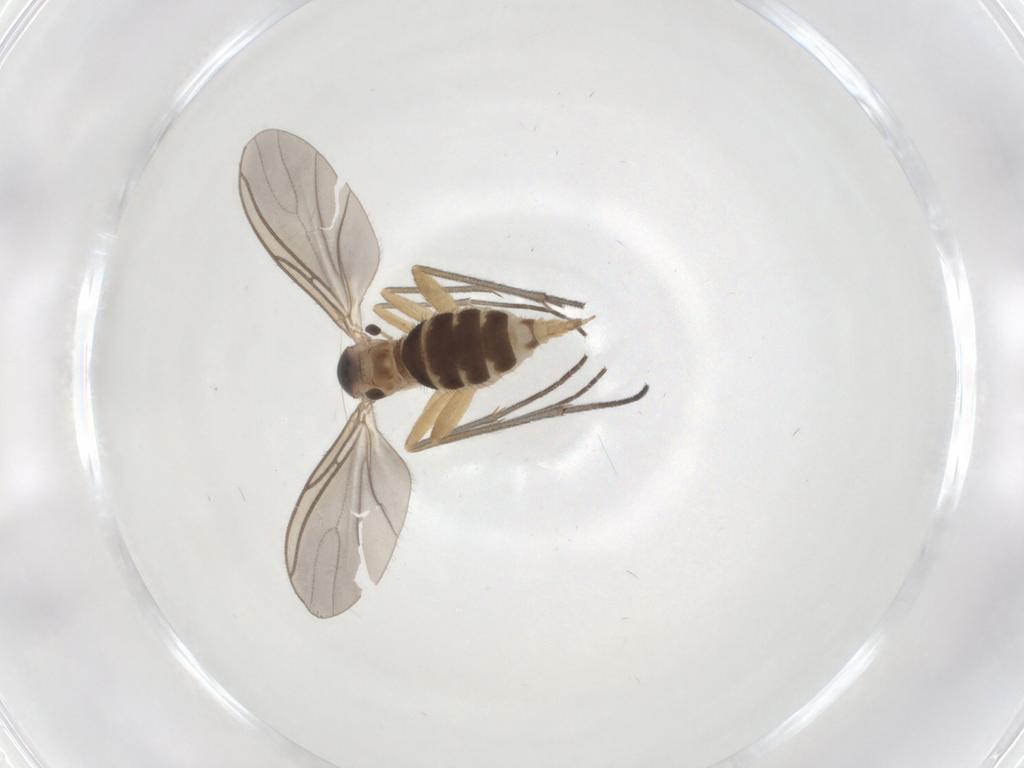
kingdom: Animalia
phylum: Arthropoda
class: Insecta
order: Diptera
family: Sciaridae
